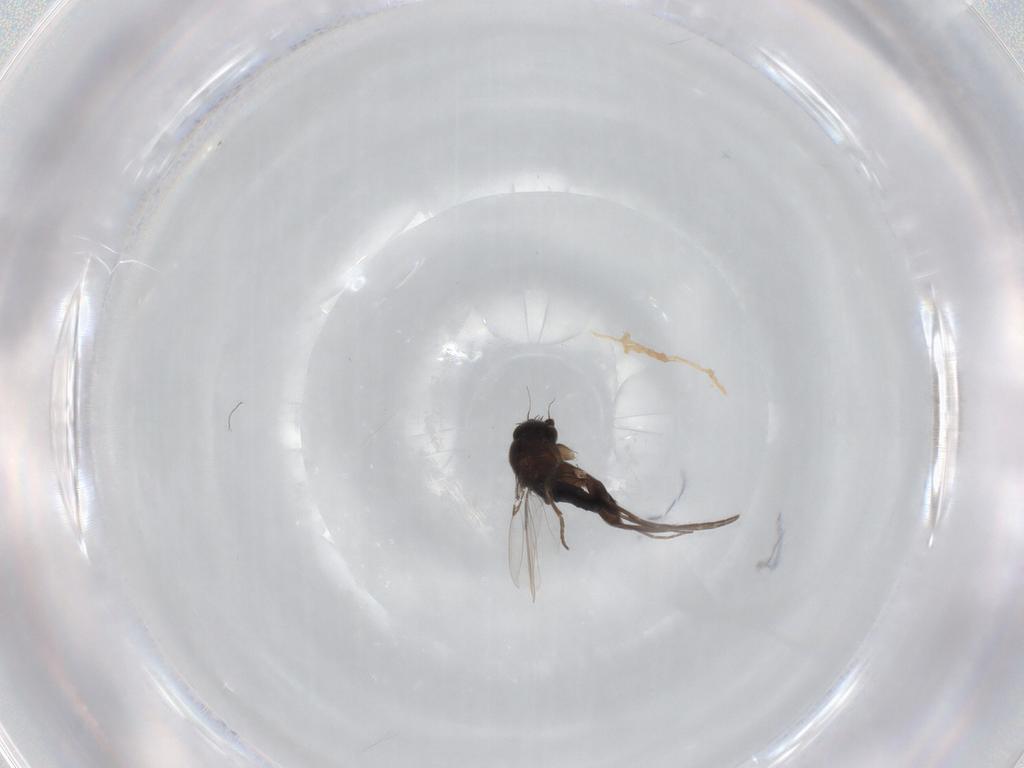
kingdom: Animalia
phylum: Arthropoda
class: Insecta
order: Diptera
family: Phoridae
